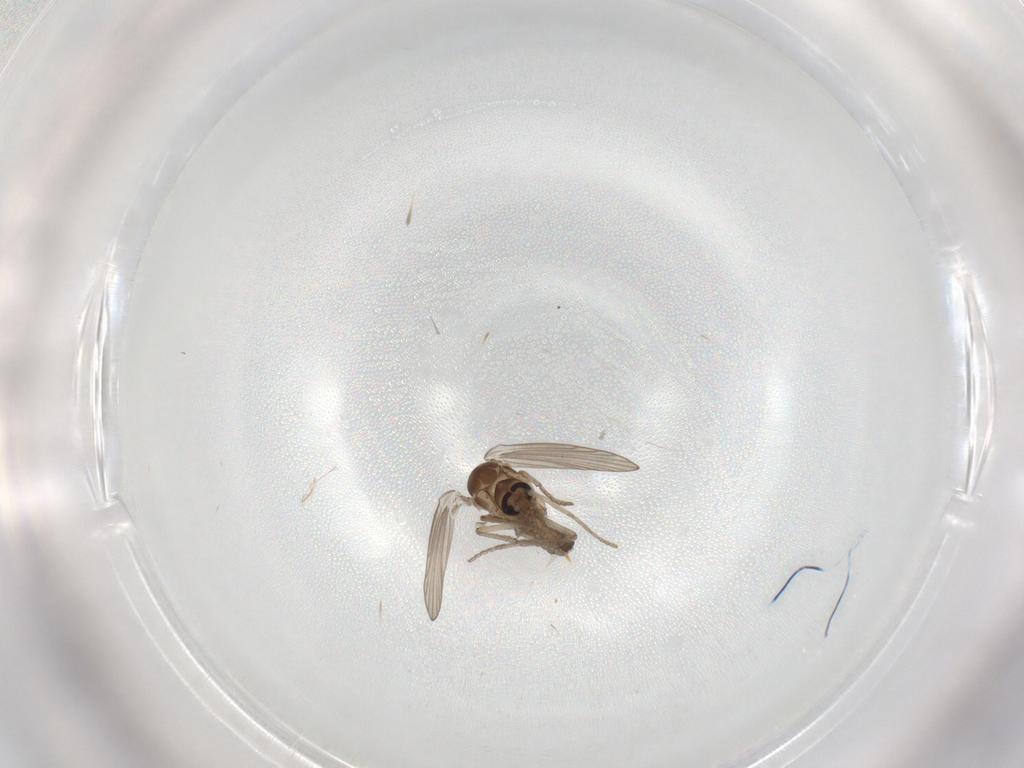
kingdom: Animalia
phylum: Arthropoda
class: Insecta
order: Diptera
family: Psychodidae
